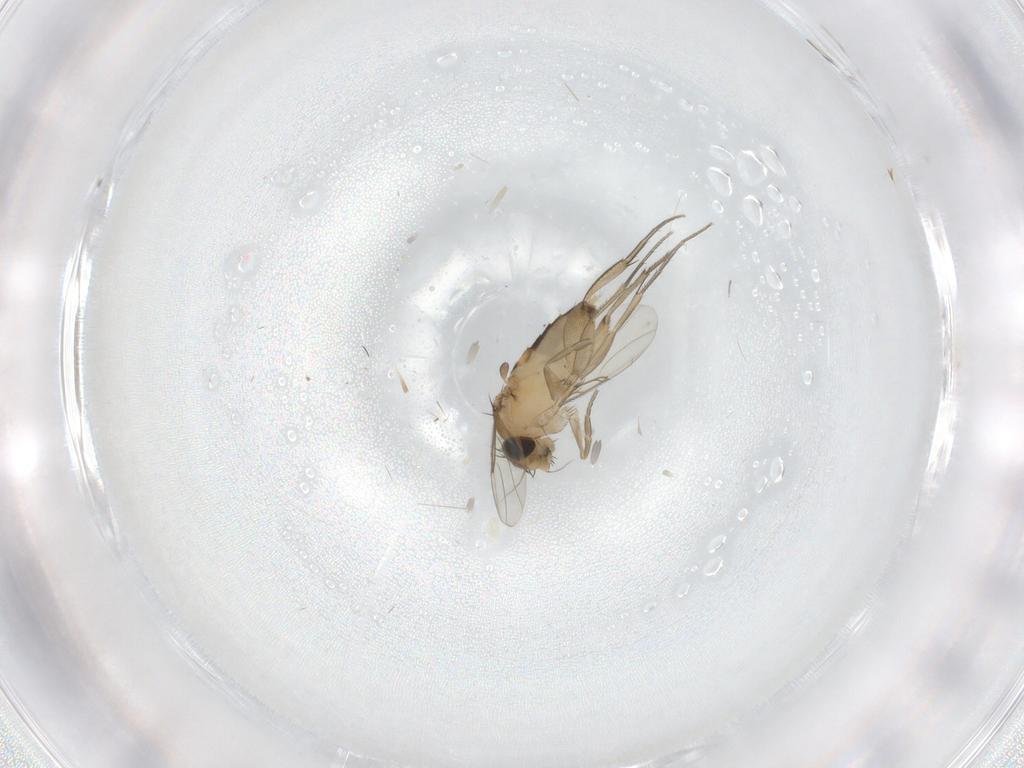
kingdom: Animalia
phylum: Arthropoda
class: Insecta
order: Diptera
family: Phoridae
